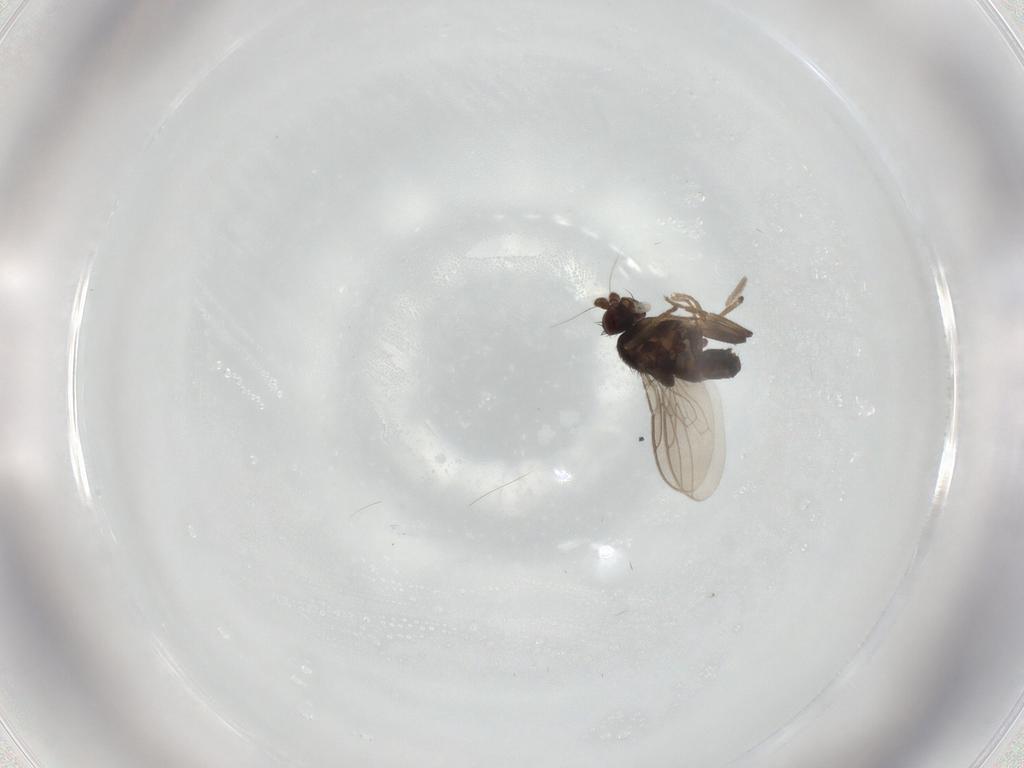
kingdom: Animalia
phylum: Arthropoda
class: Insecta
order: Diptera
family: Sphaeroceridae
